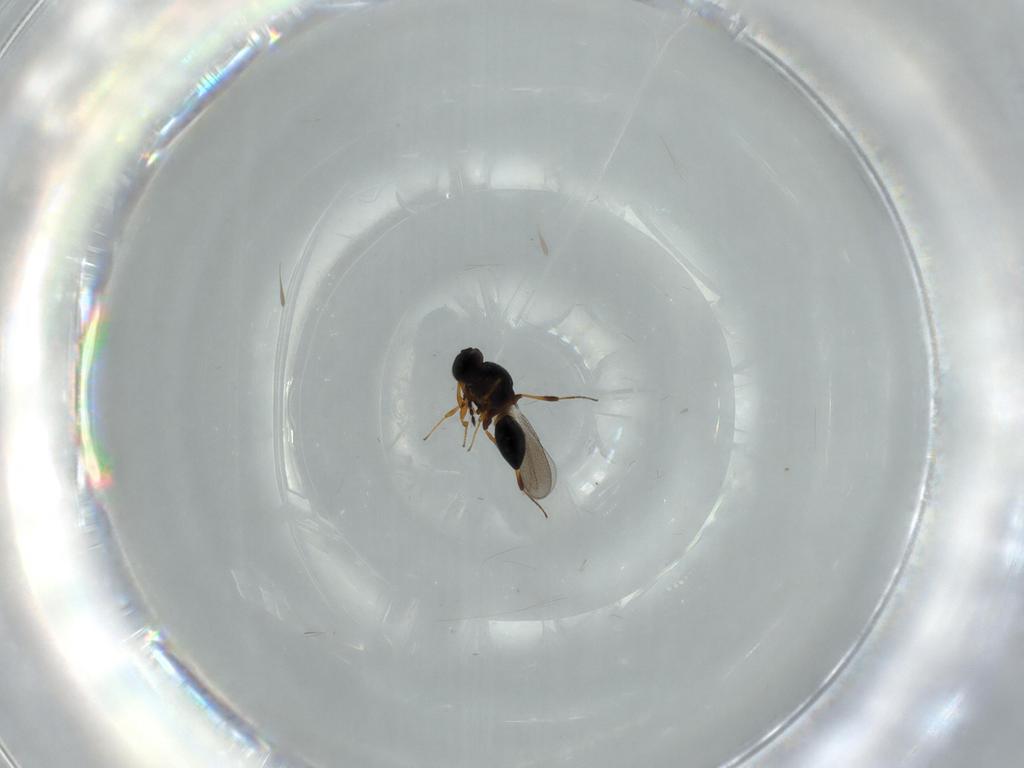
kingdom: Animalia
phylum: Arthropoda
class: Insecta
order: Hymenoptera
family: Platygastridae
